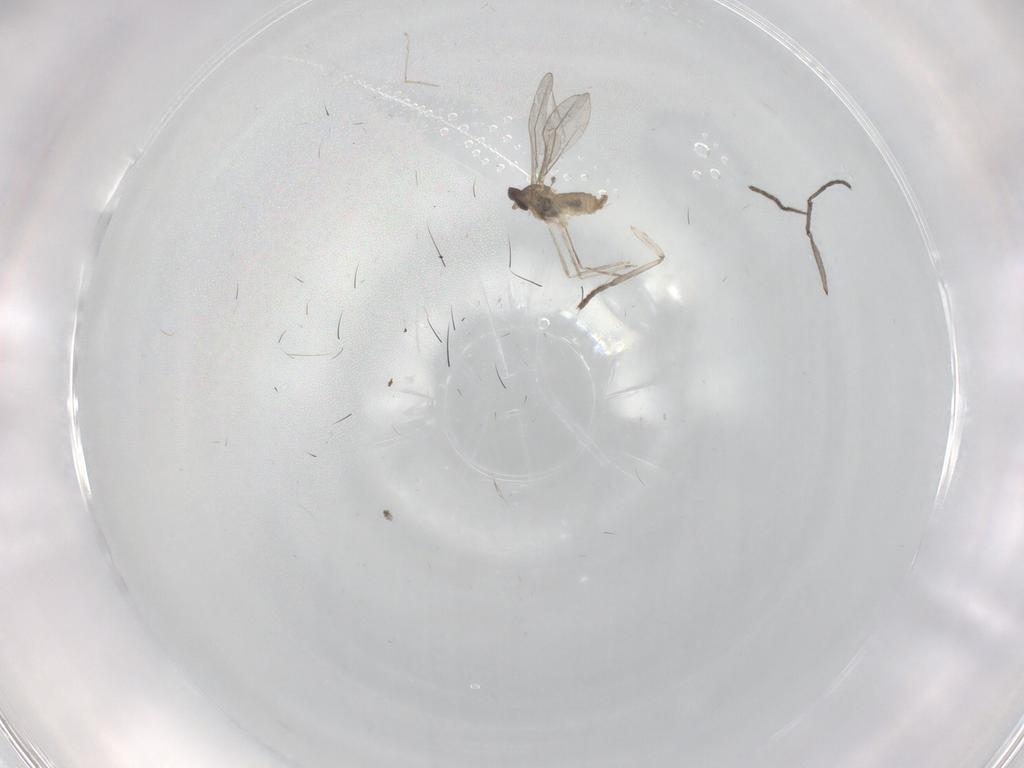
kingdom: Animalia
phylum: Arthropoda
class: Insecta
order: Diptera
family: Cecidomyiidae
